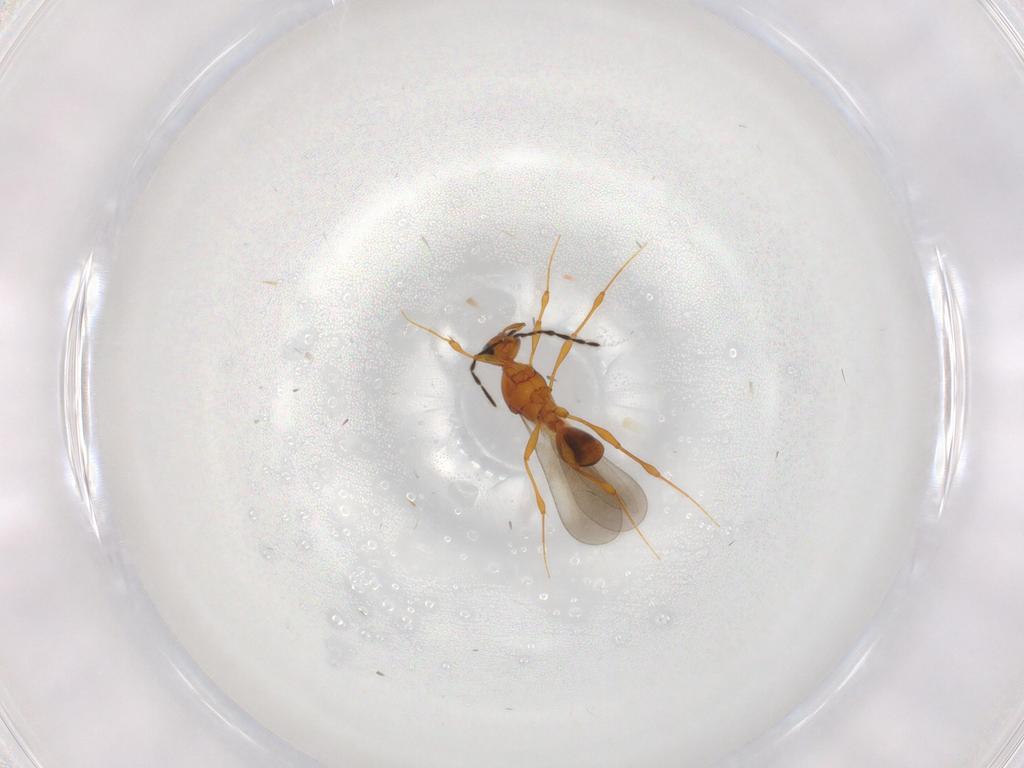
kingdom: Animalia
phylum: Arthropoda
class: Insecta
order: Hymenoptera
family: Platygastridae
